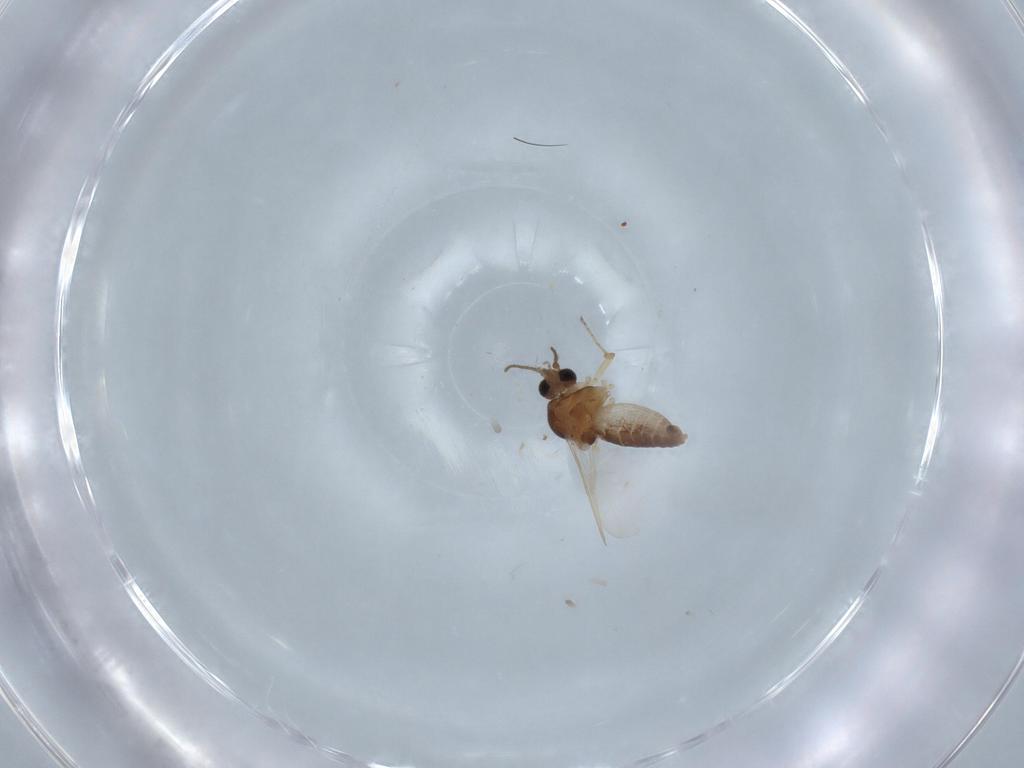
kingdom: Animalia
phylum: Arthropoda
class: Insecta
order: Diptera
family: Ceratopogonidae
